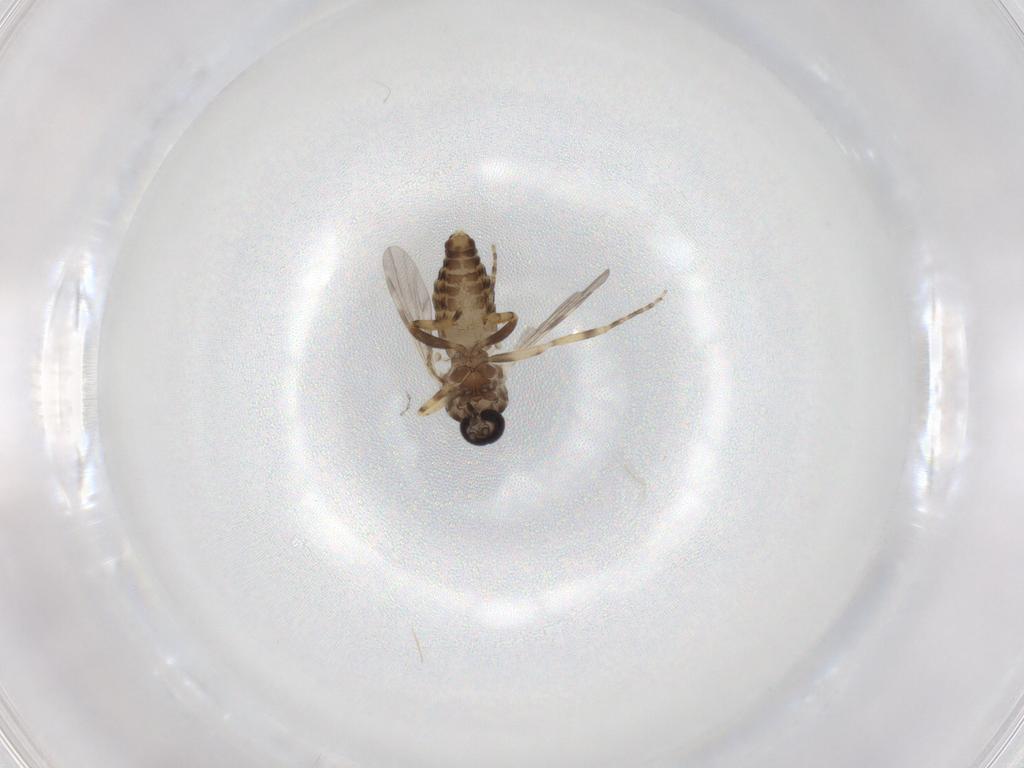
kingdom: Animalia
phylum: Arthropoda
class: Insecta
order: Diptera
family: Ceratopogonidae
